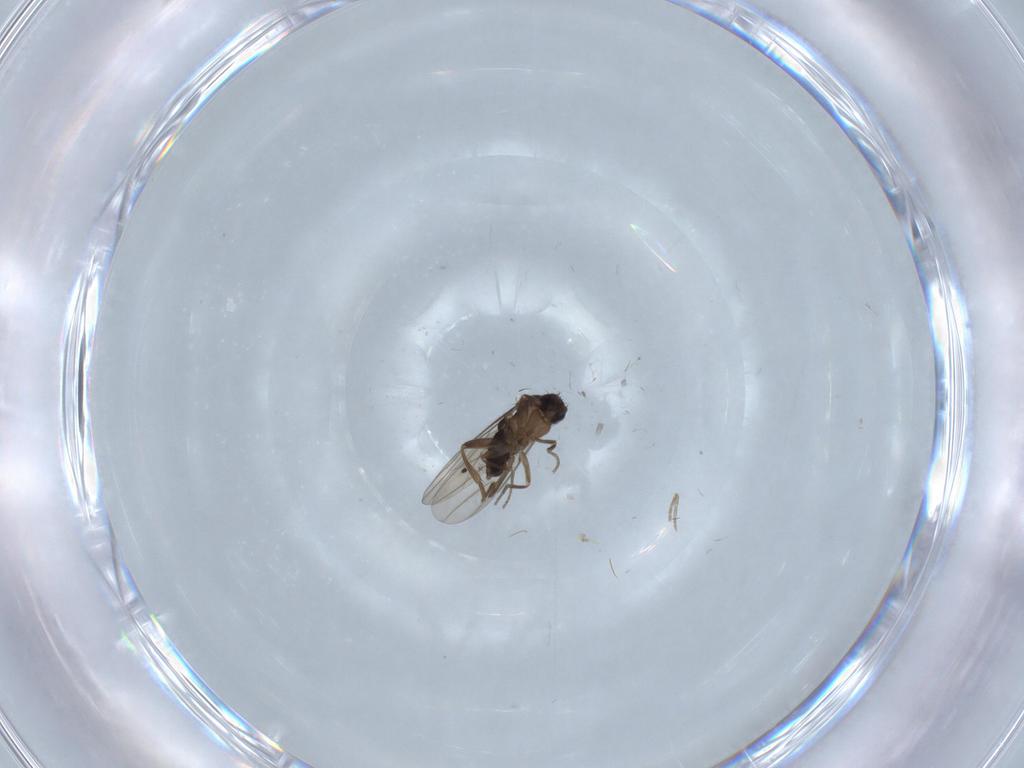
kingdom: Animalia
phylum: Arthropoda
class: Insecta
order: Diptera
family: Phoridae
